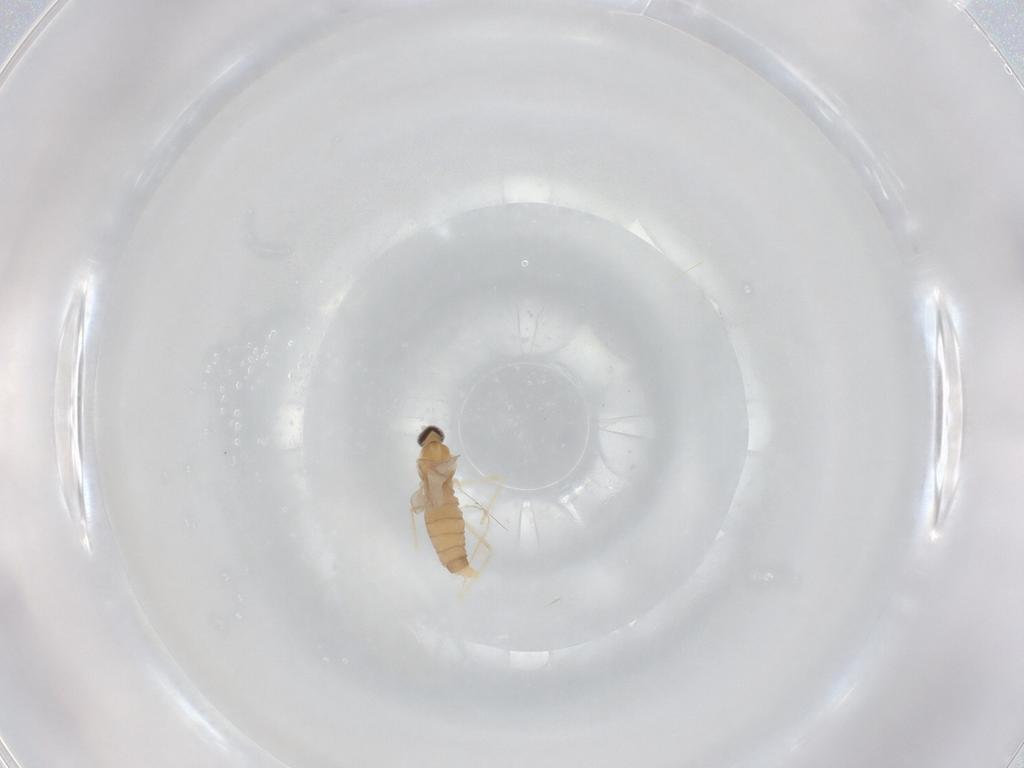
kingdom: Animalia
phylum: Arthropoda
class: Insecta
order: Diptera
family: Cecidomyiidae
